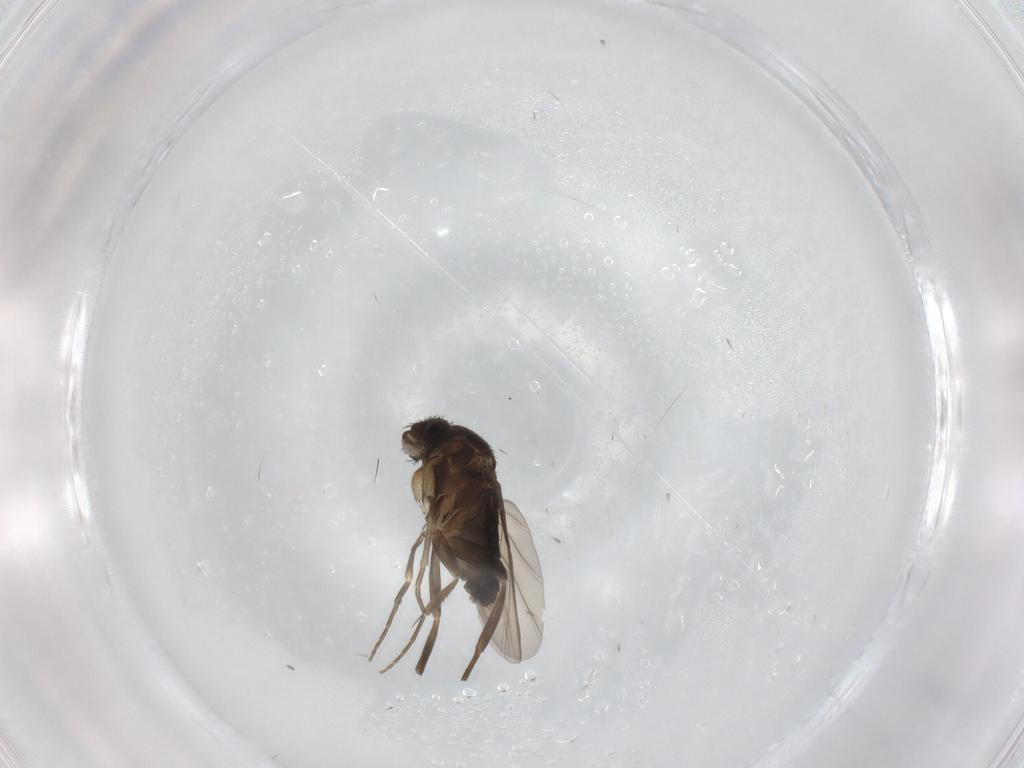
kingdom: Animalia
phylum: Arthropoda
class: Insecta
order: Diptera
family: Phoridae
